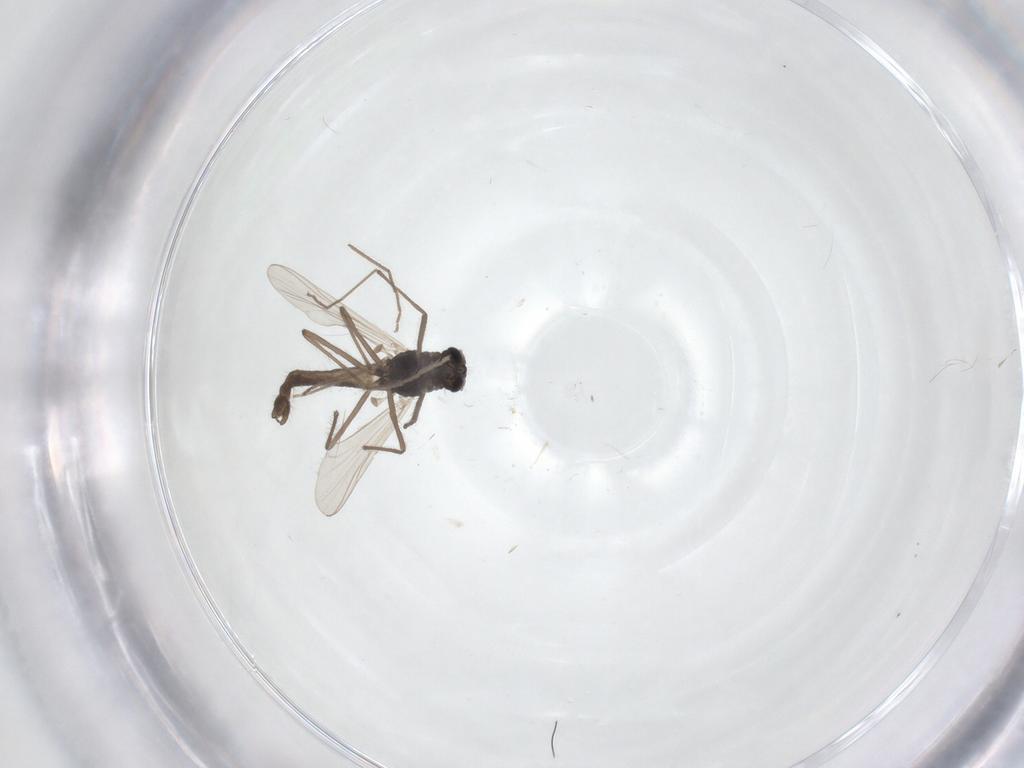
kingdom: Animalia
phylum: Arthropoda
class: Insecta
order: Diptera
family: Chironomidae
